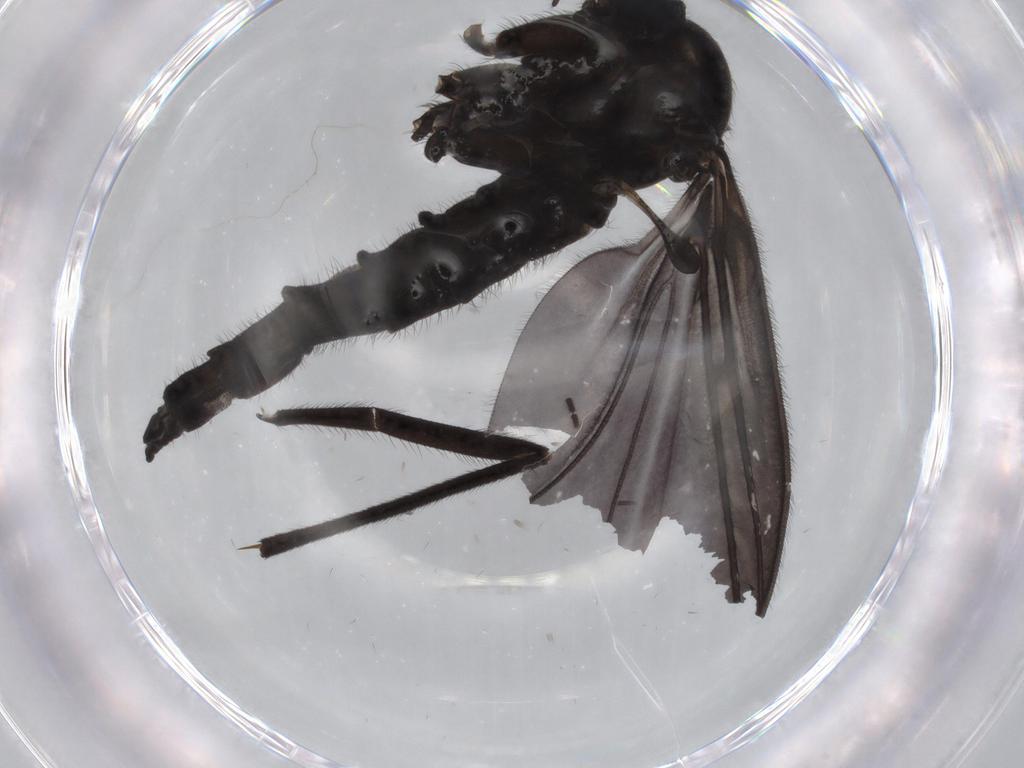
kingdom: Animalia
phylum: Arthropoda
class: Insecta
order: Diptera
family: Sciaridae
